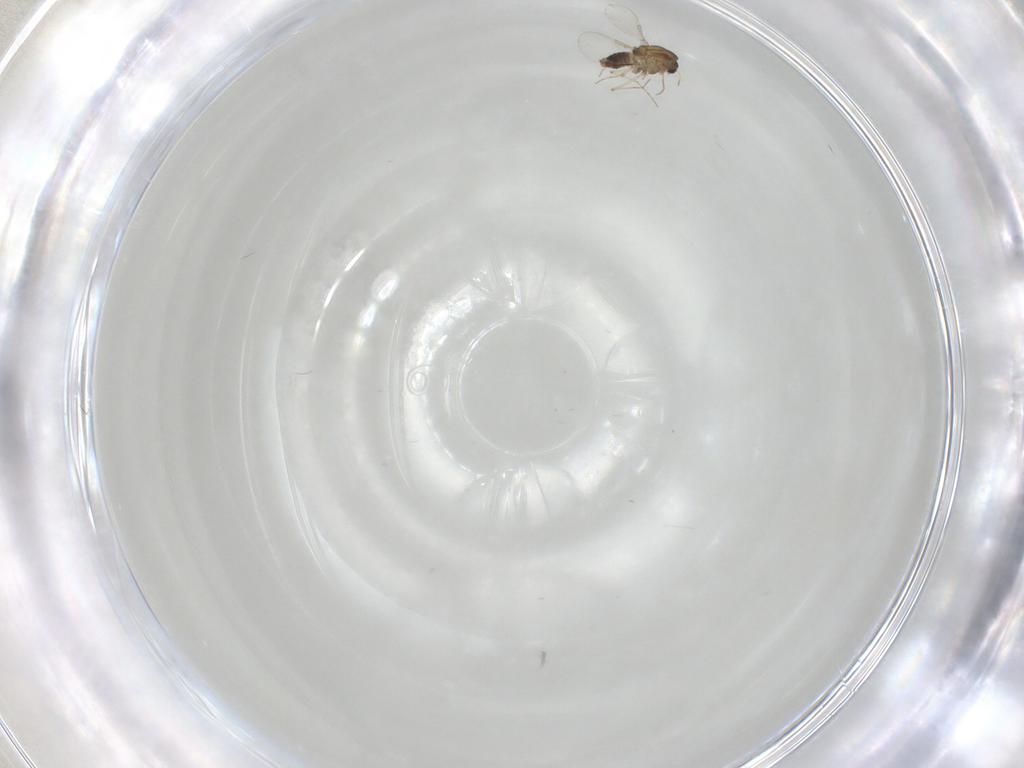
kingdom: Animalia
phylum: Arthropoda
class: Insecta
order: Diptera
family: Chironomidae
